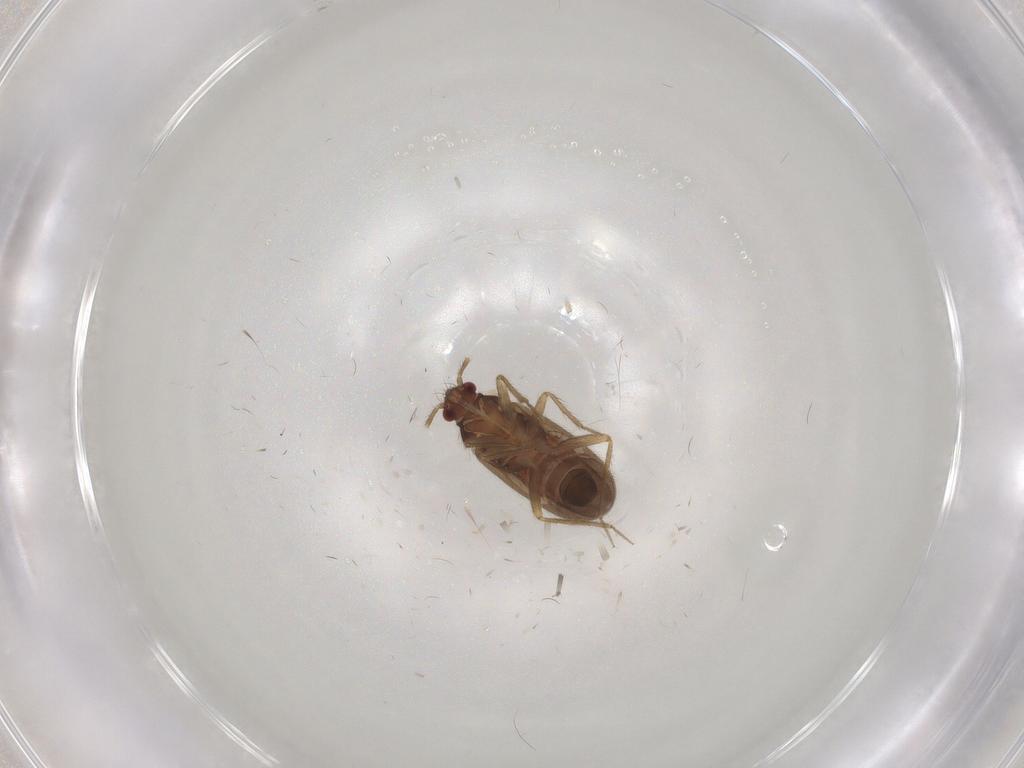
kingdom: Animalia
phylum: Arthropoda
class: Insecta
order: Hemiptera
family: Ceratocombidae
